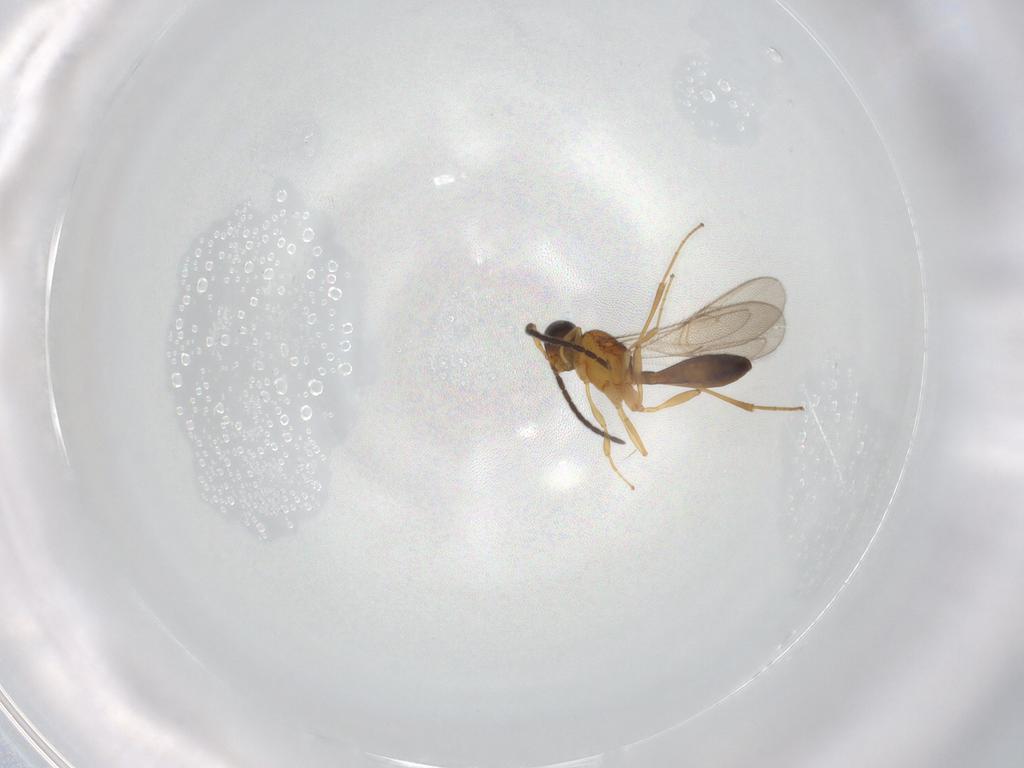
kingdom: Animalia
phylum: Arthropoda
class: Insecta
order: Hymenoptera
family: Scelionidae
